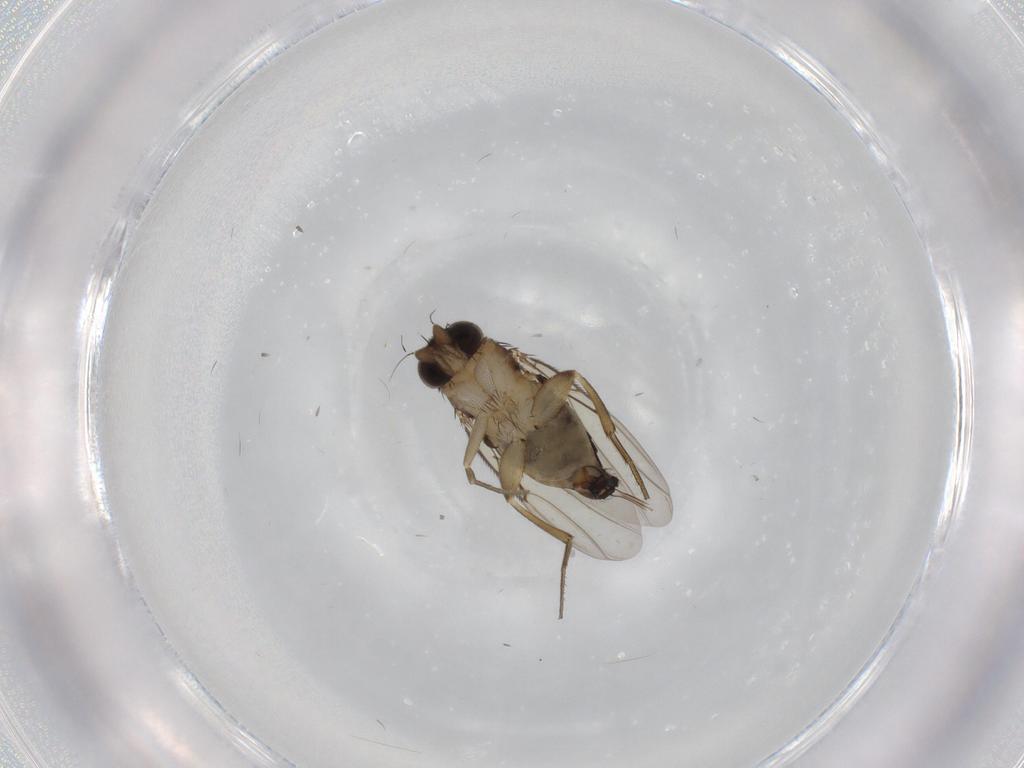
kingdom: Animalia
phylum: Arthropoda
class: Insecta
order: Diptera
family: Phoridae
